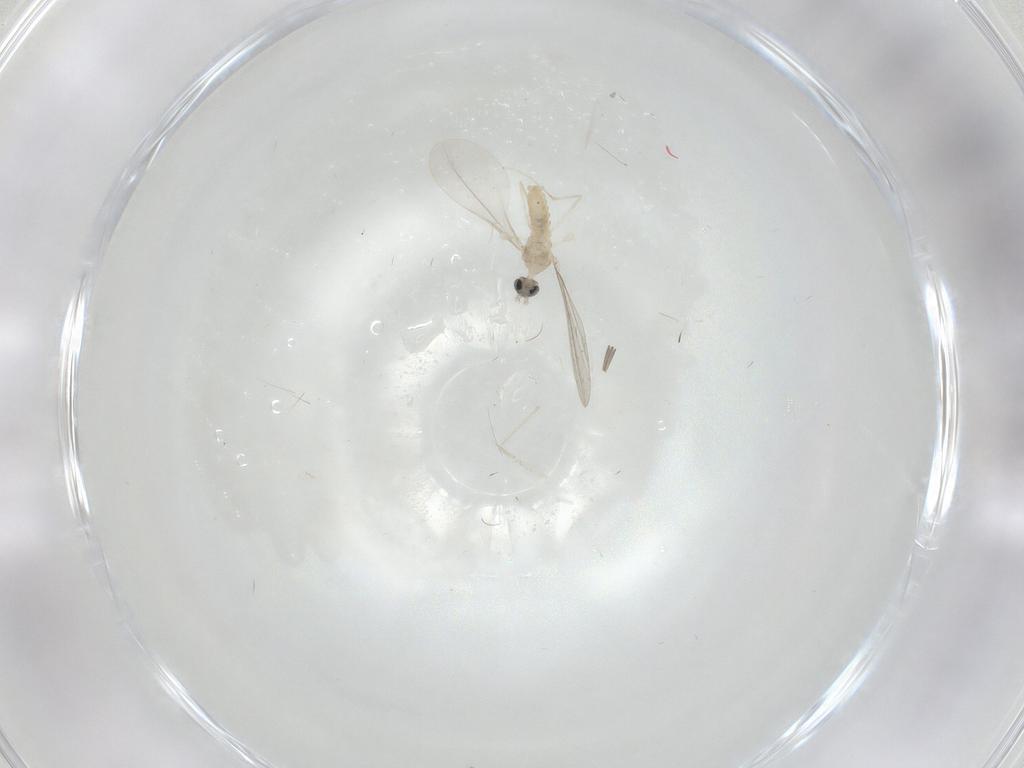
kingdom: Animalia
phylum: Arthropoda
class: Insecta
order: Diptera
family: Cecidomyiidae
